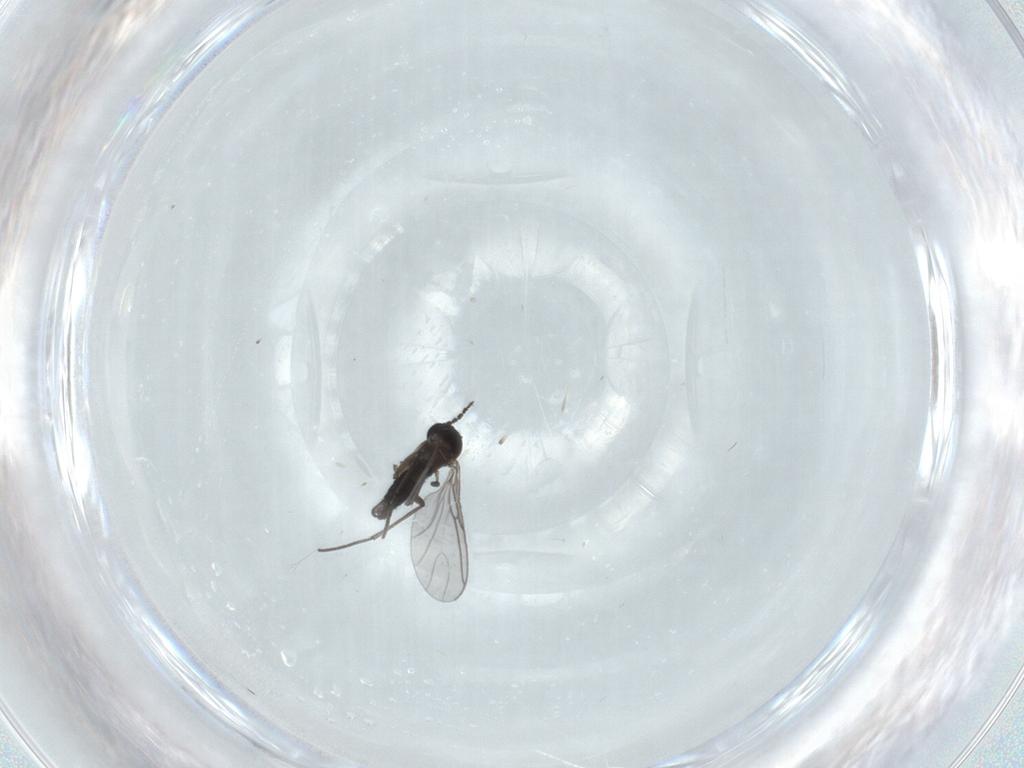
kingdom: Animalia
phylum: Arthropoda
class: Insecta
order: Diptera
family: Sciaridae
